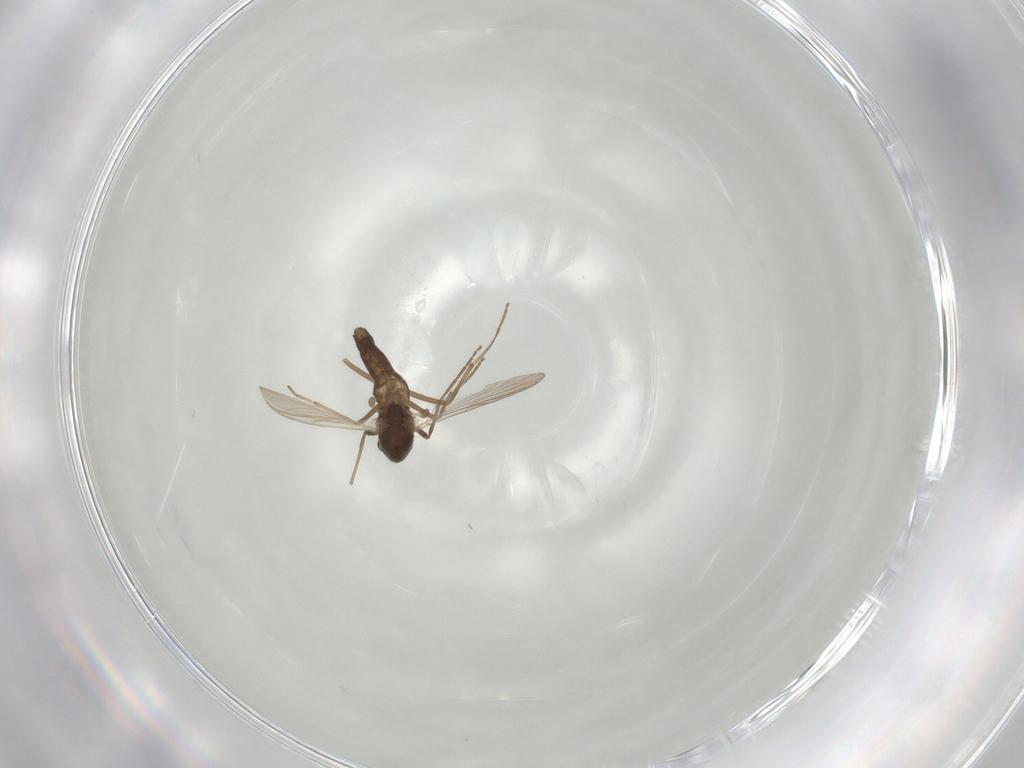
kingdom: Animalia
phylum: Arthropoda
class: Insecta
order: Diptera
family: Chironomidae
